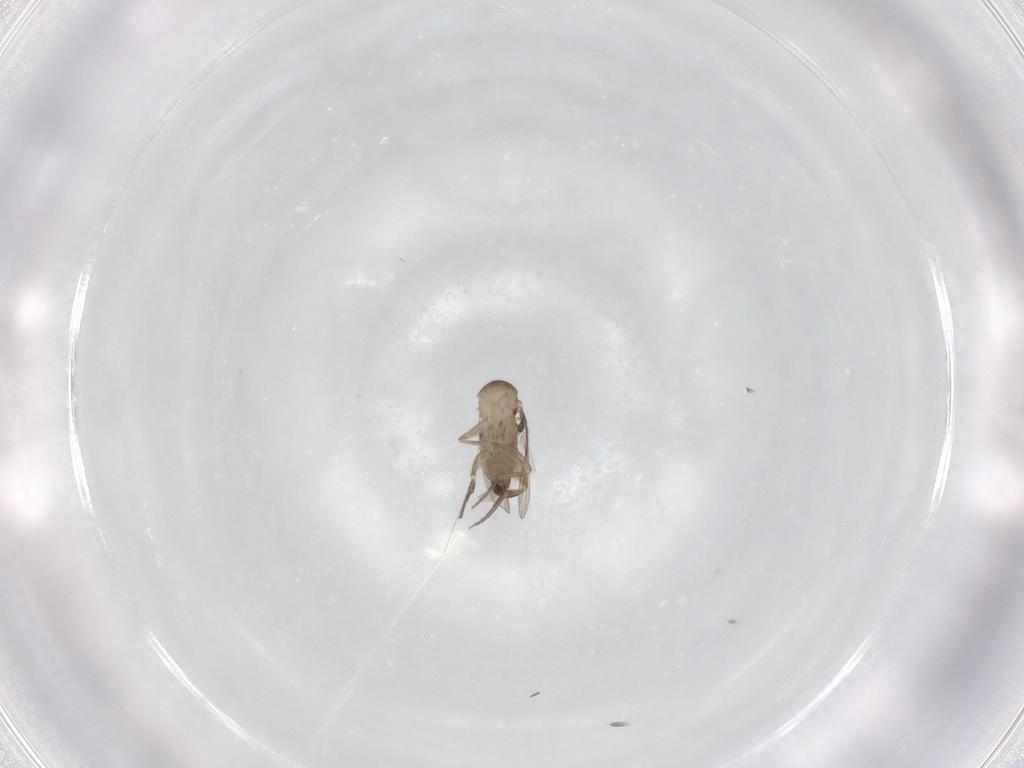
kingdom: Animalia
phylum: Arthropoda
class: Insecta
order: Diptera
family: Phoridae
